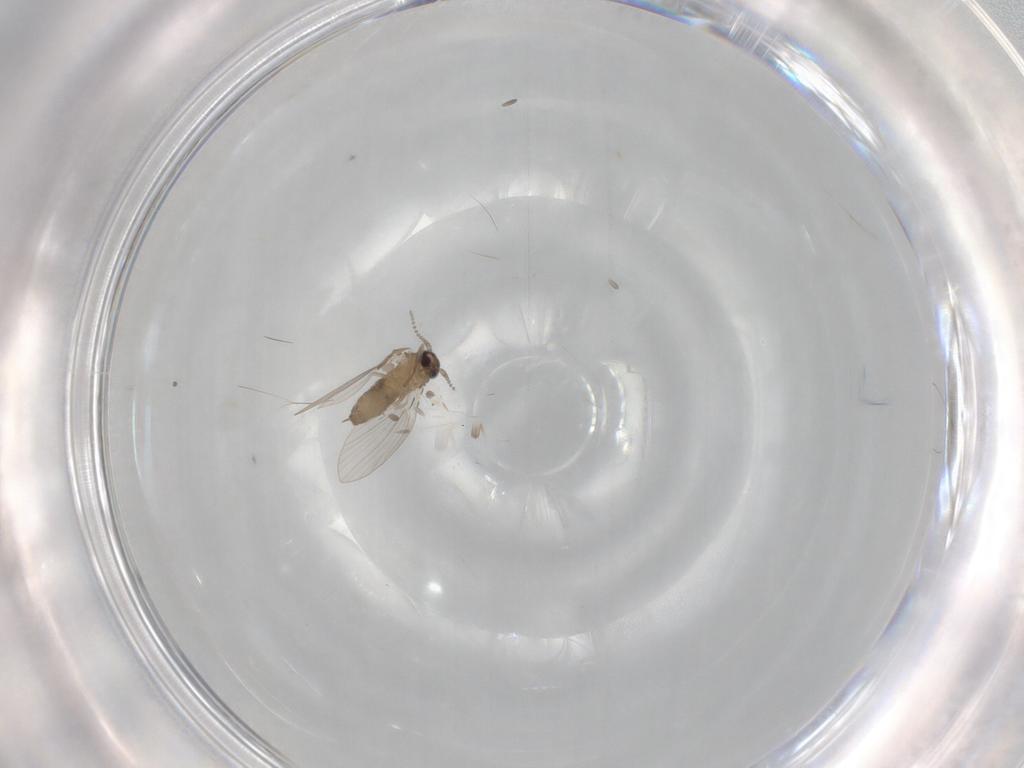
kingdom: Animalia
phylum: Arthropoda
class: Insecta
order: Diptera
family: Psychodidae
